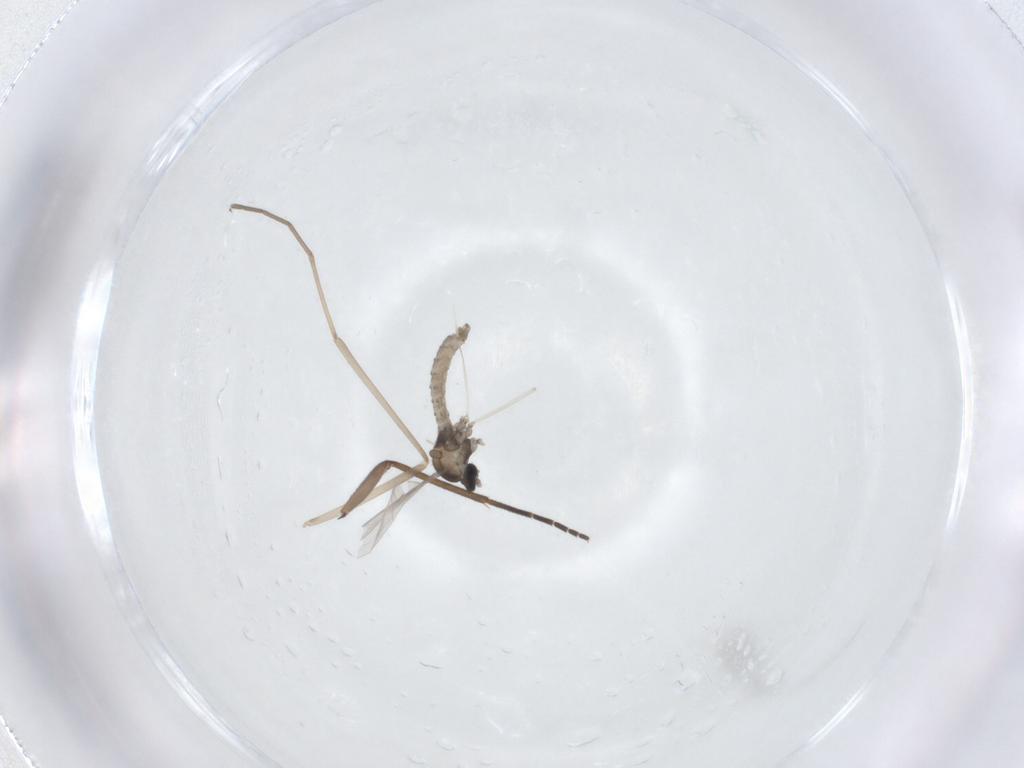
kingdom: Animalia
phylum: Arthropoda
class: Insecta
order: Diptera
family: Cecidomyiidae
